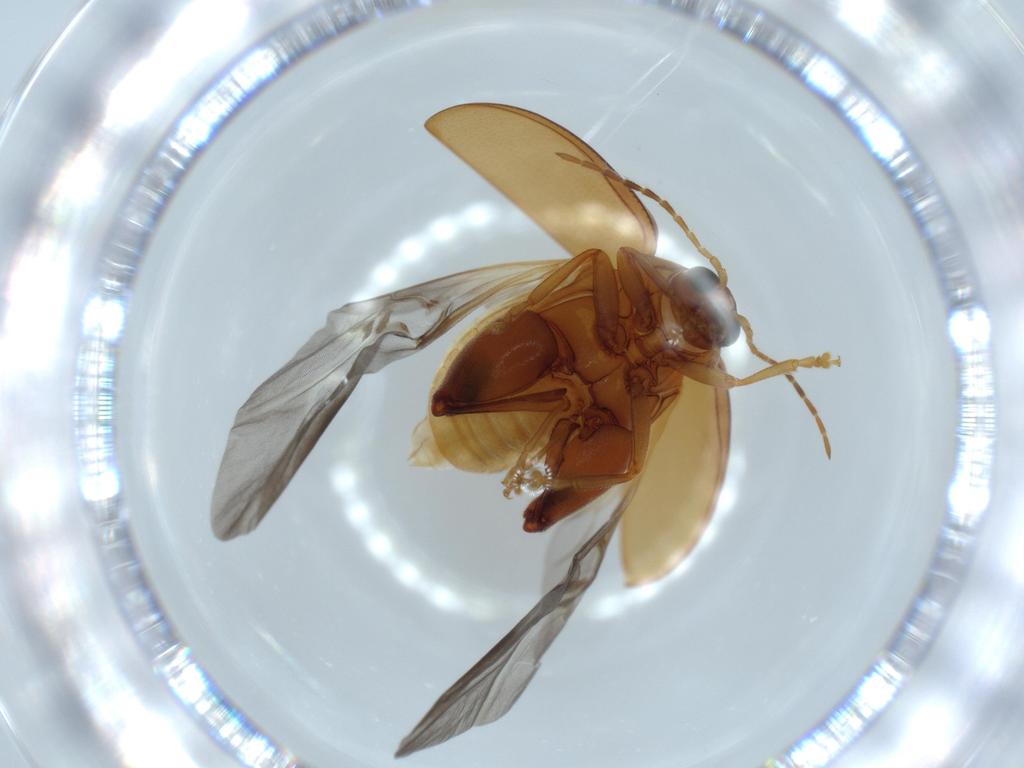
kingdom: Animalia
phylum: Arthropoda
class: Insecta
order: Coleoptera
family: Chrysomelidae
